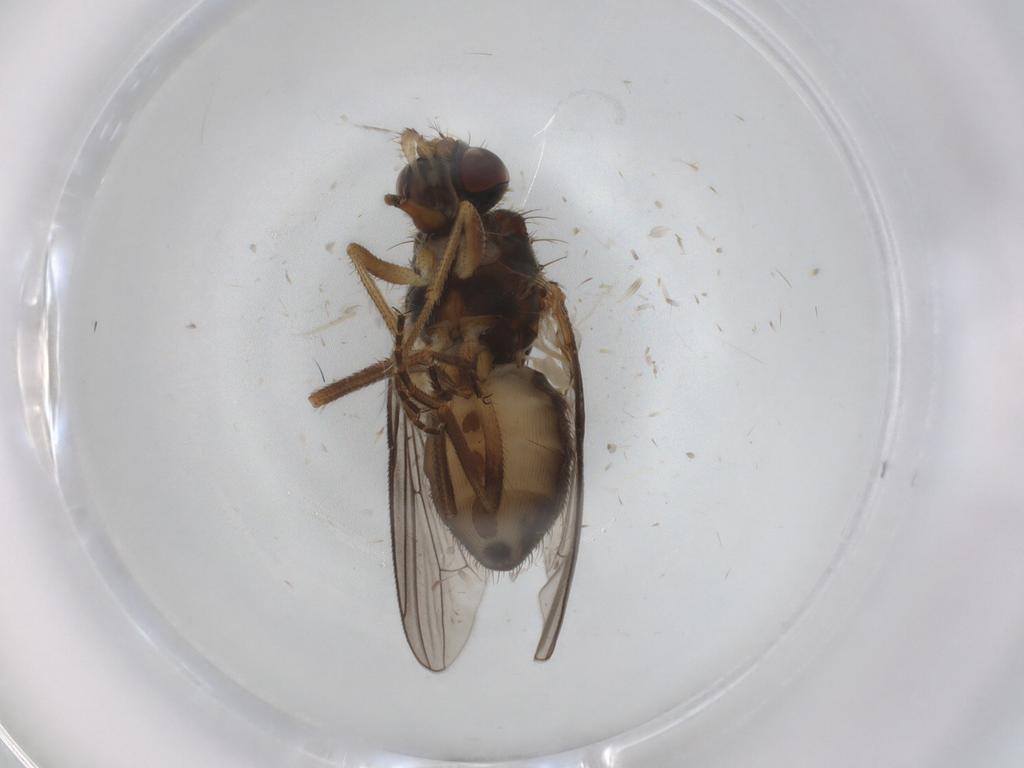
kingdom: Animalia
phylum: Arthropoda
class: Insecta
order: Diptera
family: Muscidae
